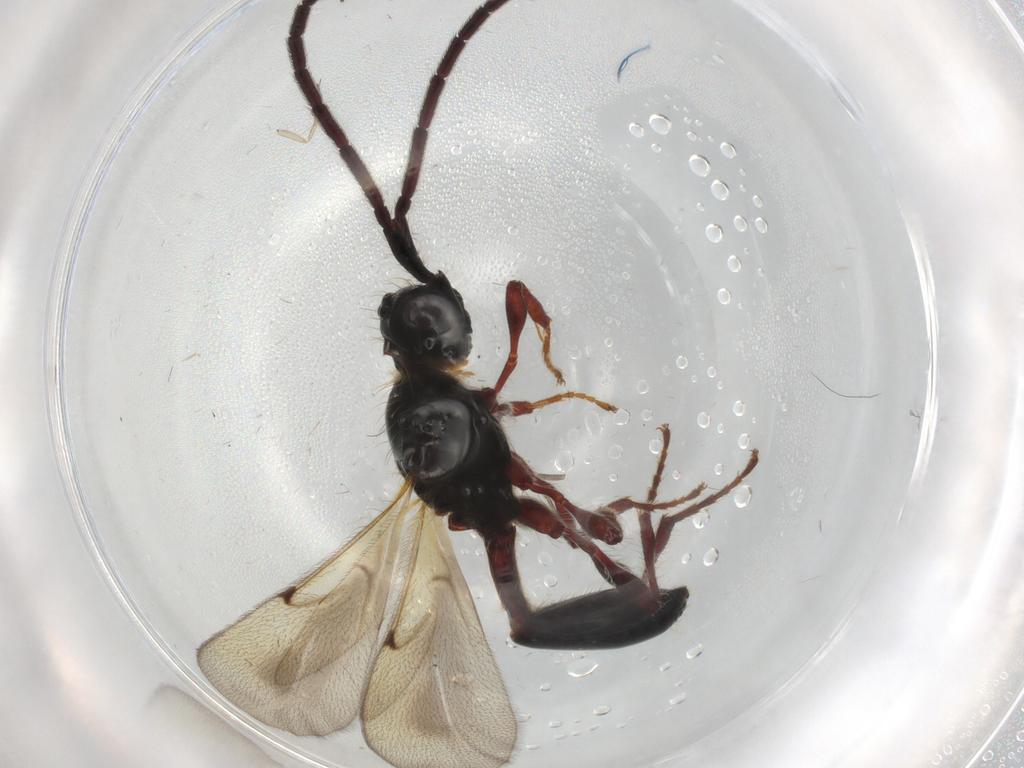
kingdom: Animalia
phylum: Arthropoda
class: Insecta
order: Hymenoptera
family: Diapriidae
